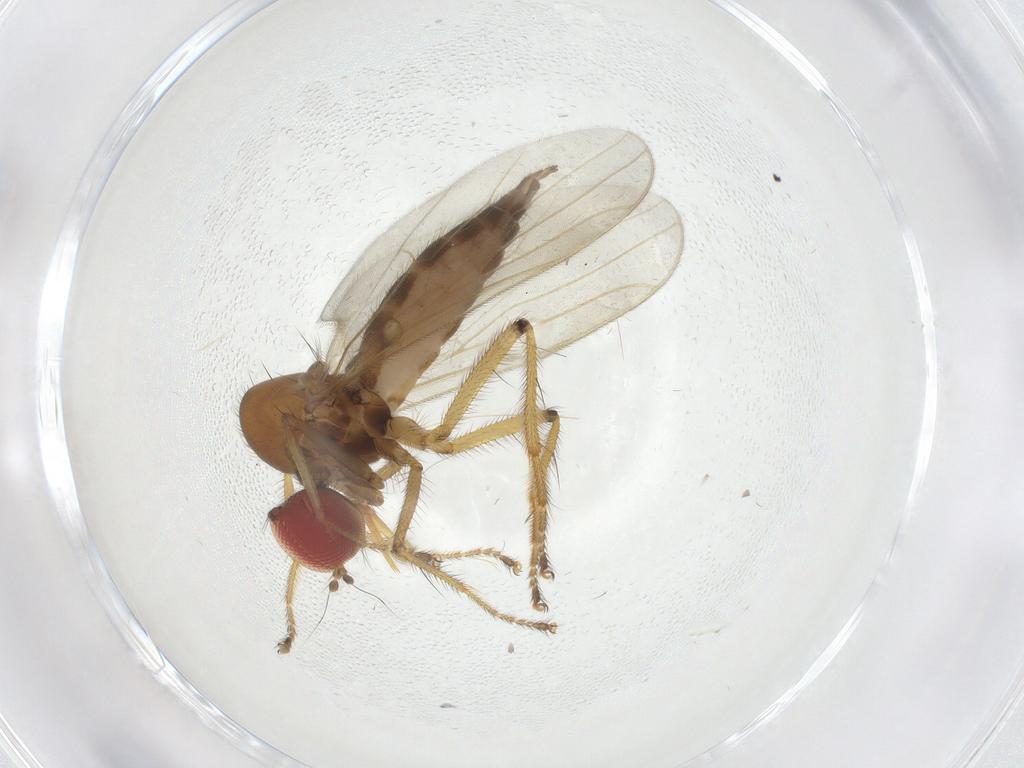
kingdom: Animalia
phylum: Arthropoda
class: Insecta
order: Diptera
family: Hybotidae
